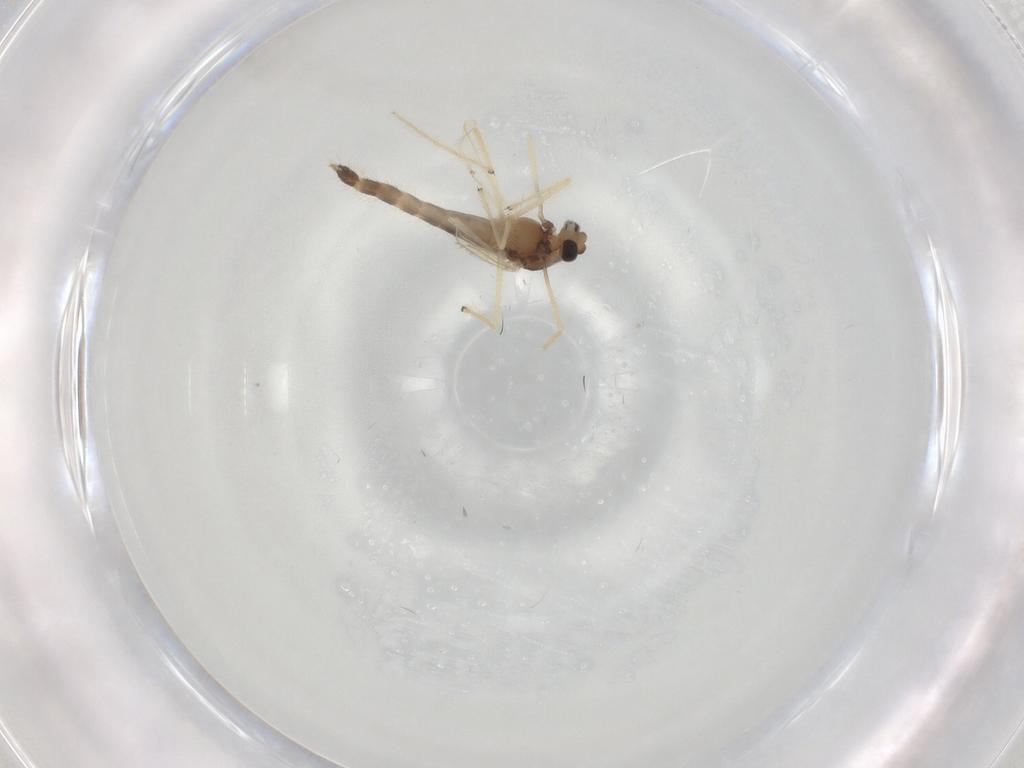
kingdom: Animalia
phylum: Arthropoda
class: Insecta
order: Diptera
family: Chironomidae
